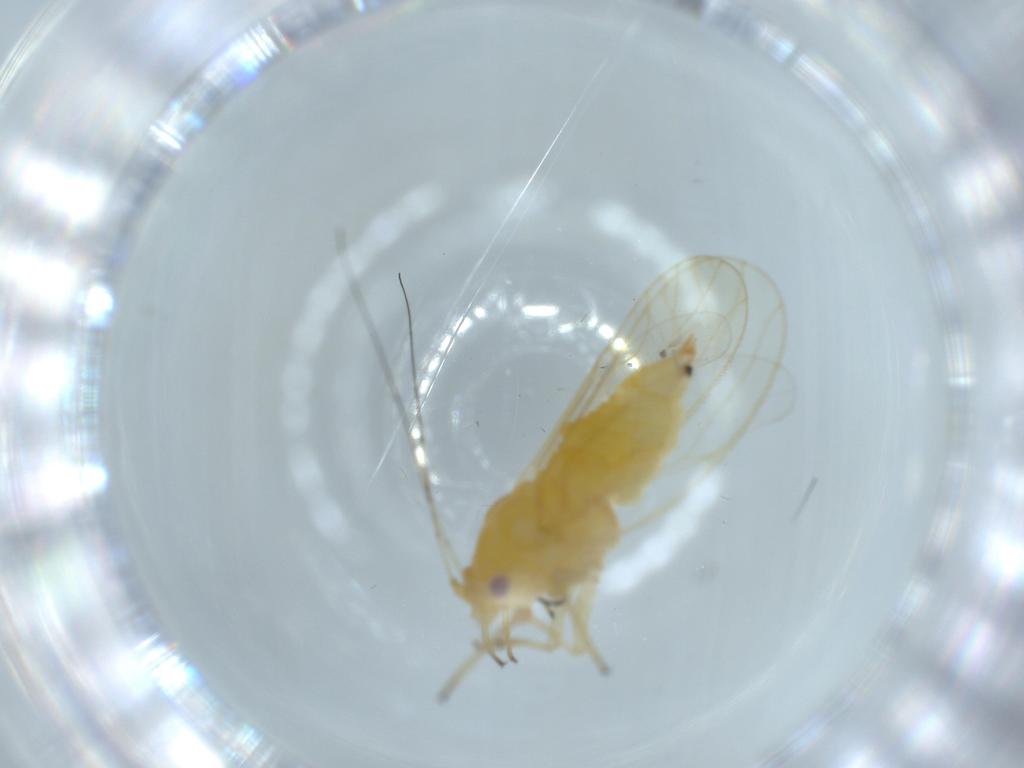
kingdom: Animalia
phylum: Arthropoda
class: Insecta
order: Hemiptera
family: Psyllidae
